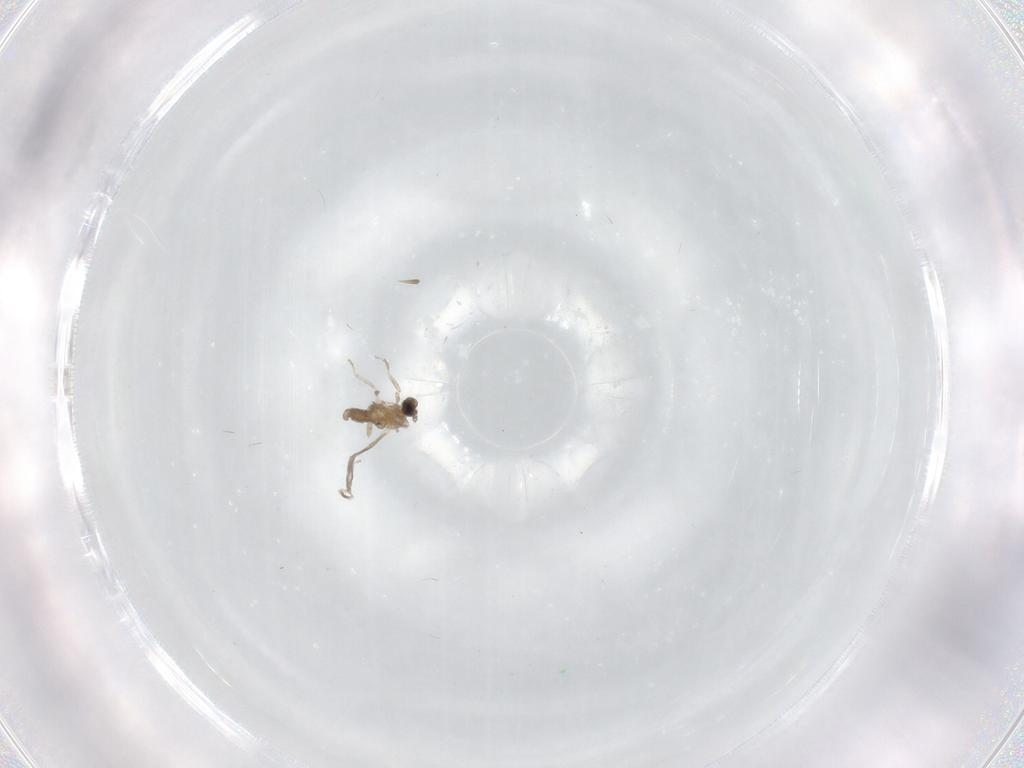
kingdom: Animalia
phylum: Arthropoda
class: Insecta
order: Diptera
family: Cecidomyiidae
